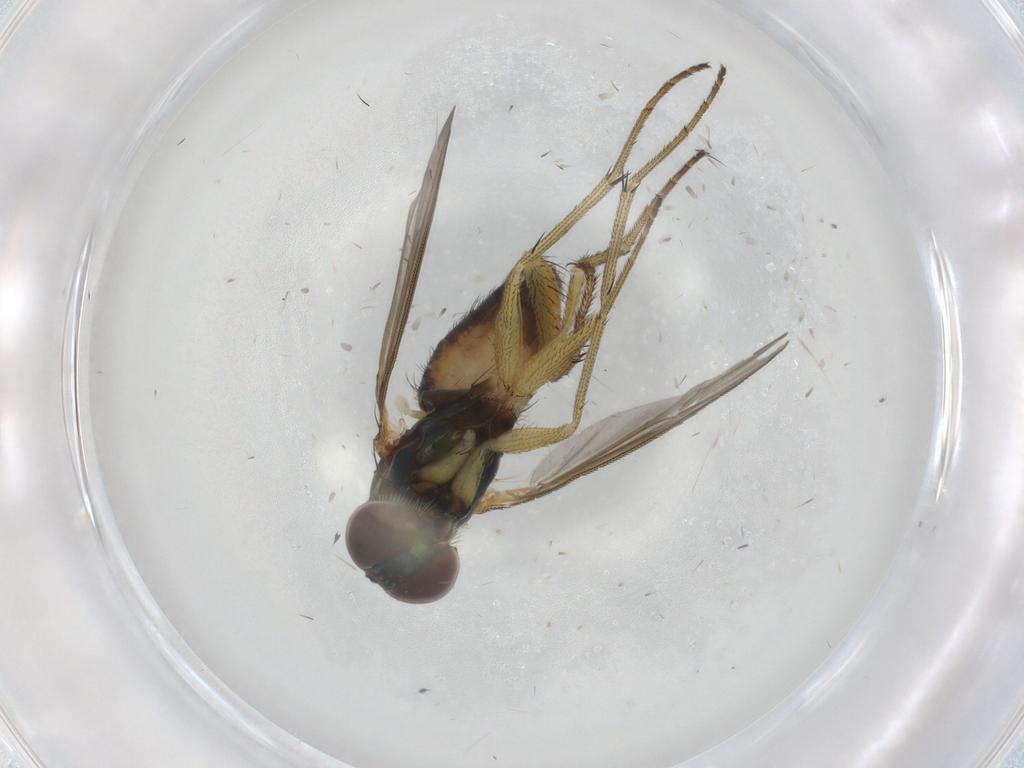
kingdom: Animalia
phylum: Arthropoda
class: Insecta
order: Diptera
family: Dolichopodidae
